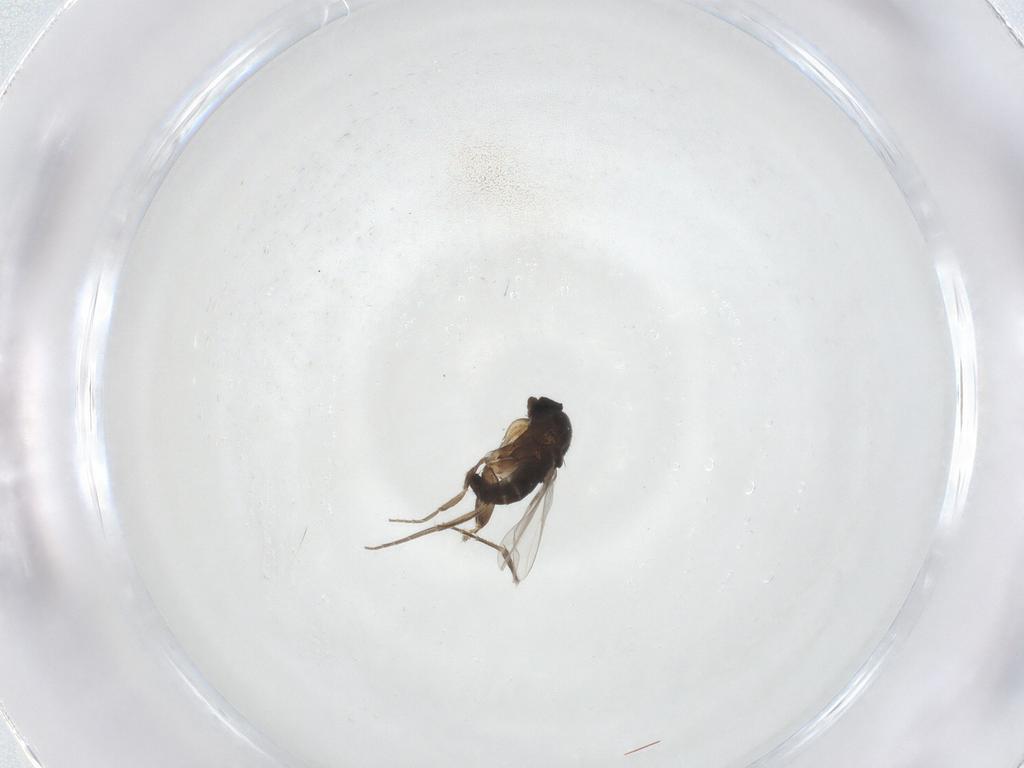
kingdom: Animalia
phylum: Arthropoda
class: Insecta
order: Diptera
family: Phoridae
